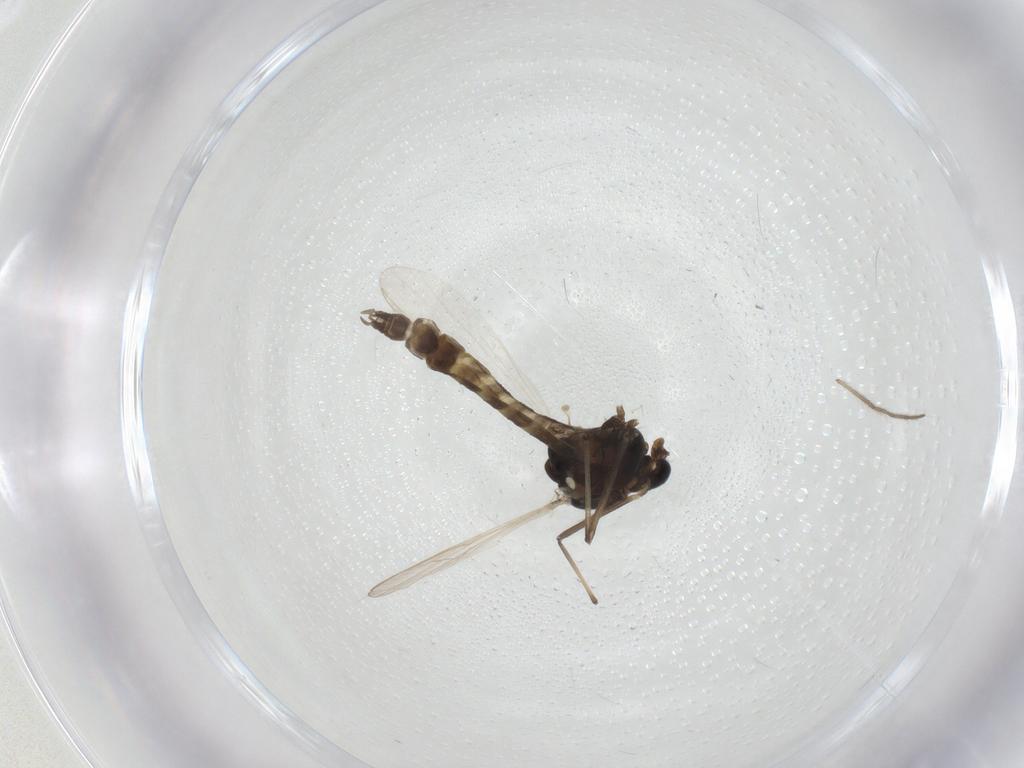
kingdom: Animalia
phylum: Arthropoda
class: Insecta
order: Diptera
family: Chironomidae
